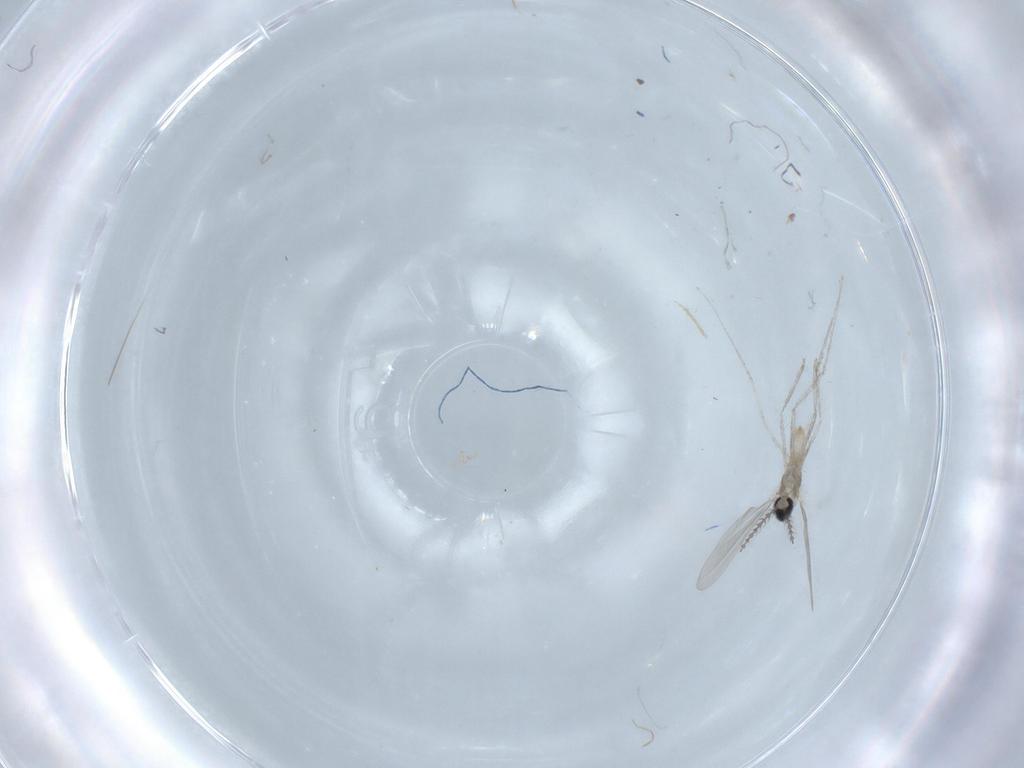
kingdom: Animalia
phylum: Arthropoda
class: Insecta
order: Diptera
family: Cecidomyiidae
